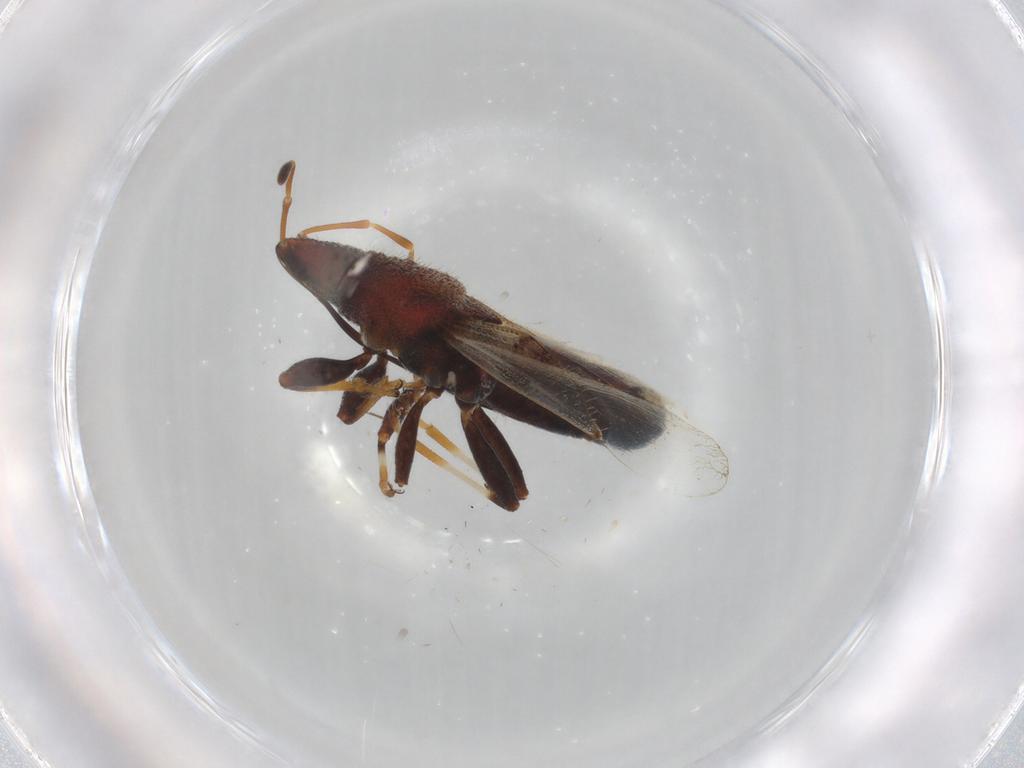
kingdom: Animalia
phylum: Arthropoda
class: Insecta
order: Hemiptera
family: Oxycarenidae
